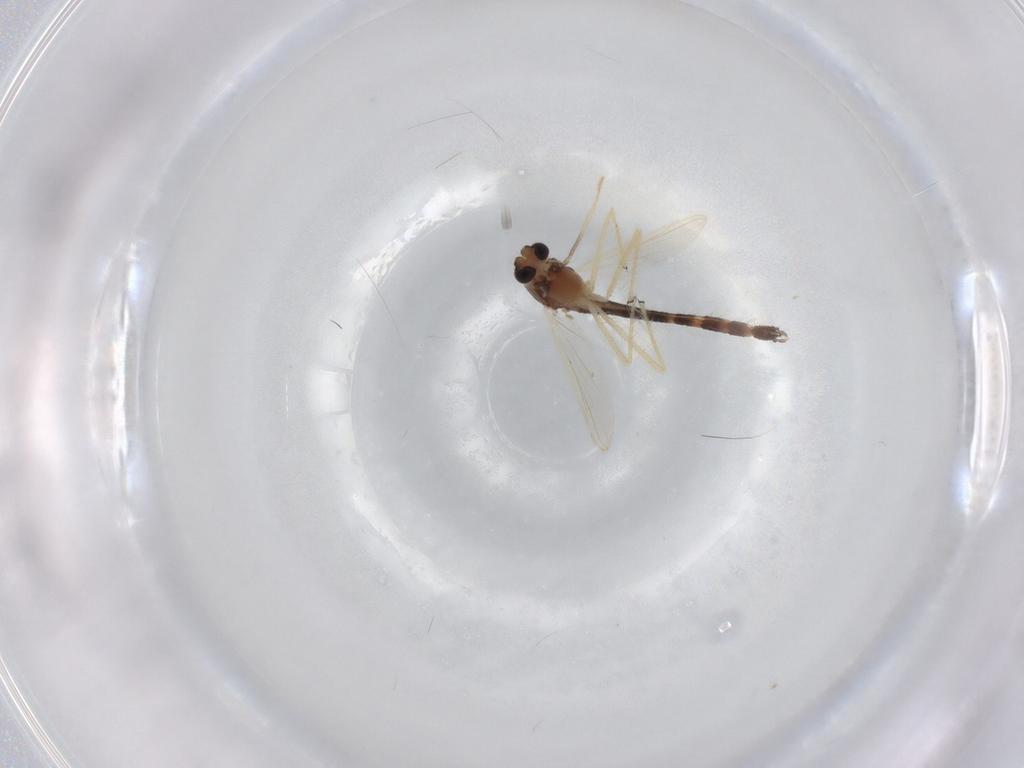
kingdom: Animalia
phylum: Arthropoda
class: Insecta
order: Diptera
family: Chironomidae
